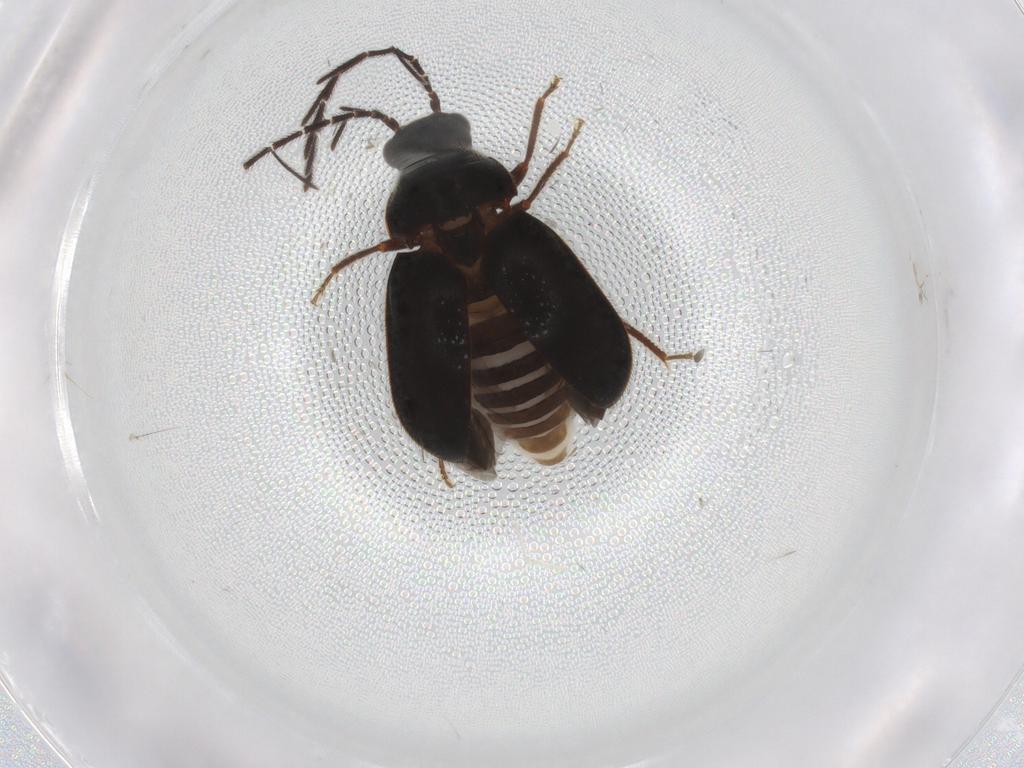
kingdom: Animalia
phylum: Arthropoda
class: Insecta
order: Coleoptera
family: Ptilodactylidae
